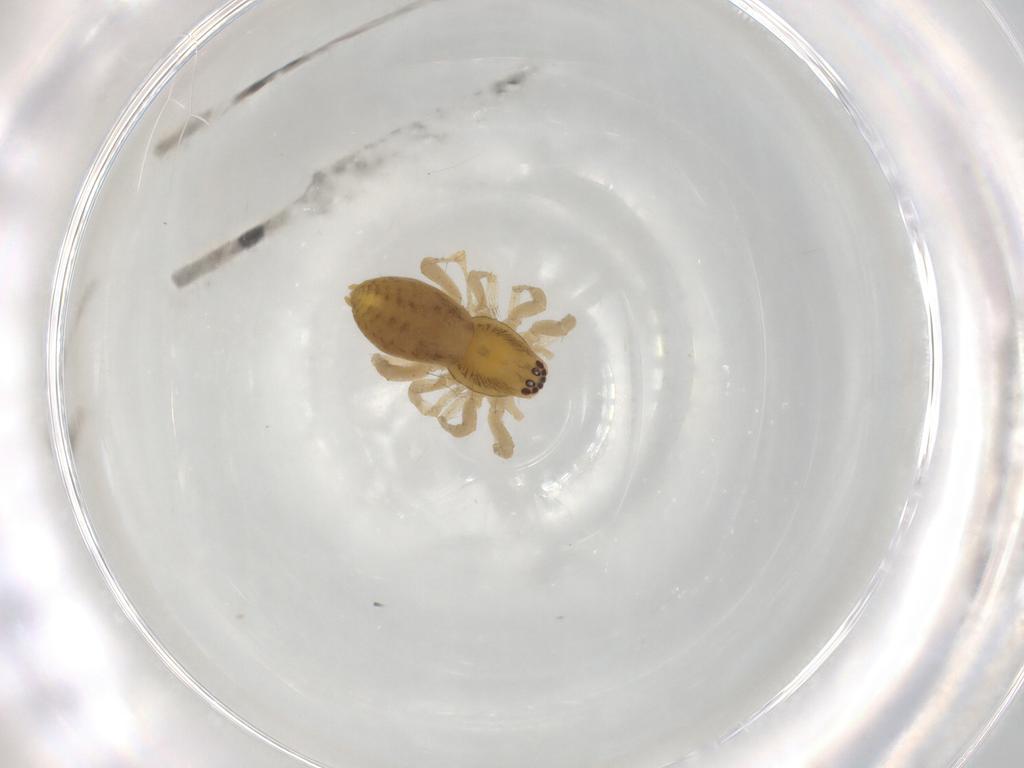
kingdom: Animalia
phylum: Arthropoda
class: Arachnida
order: Araneae
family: Anyphaenidae
